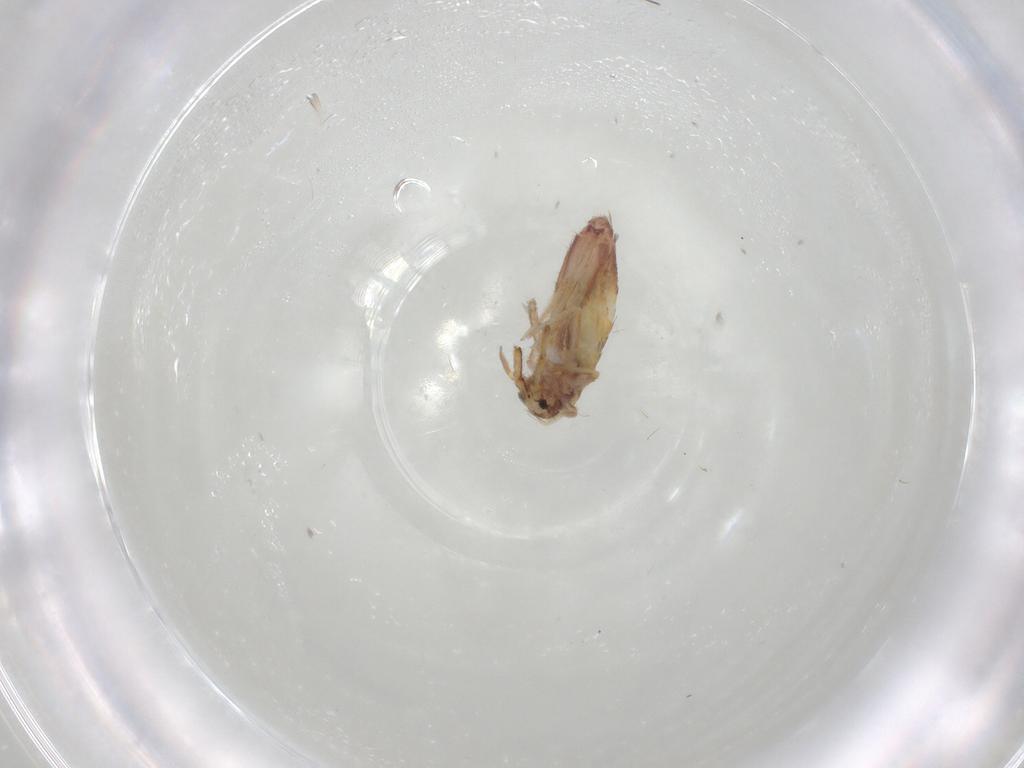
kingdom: Animalia
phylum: Arthropoda
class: Collembola
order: Entomobryomorpha
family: Entomobryidae
